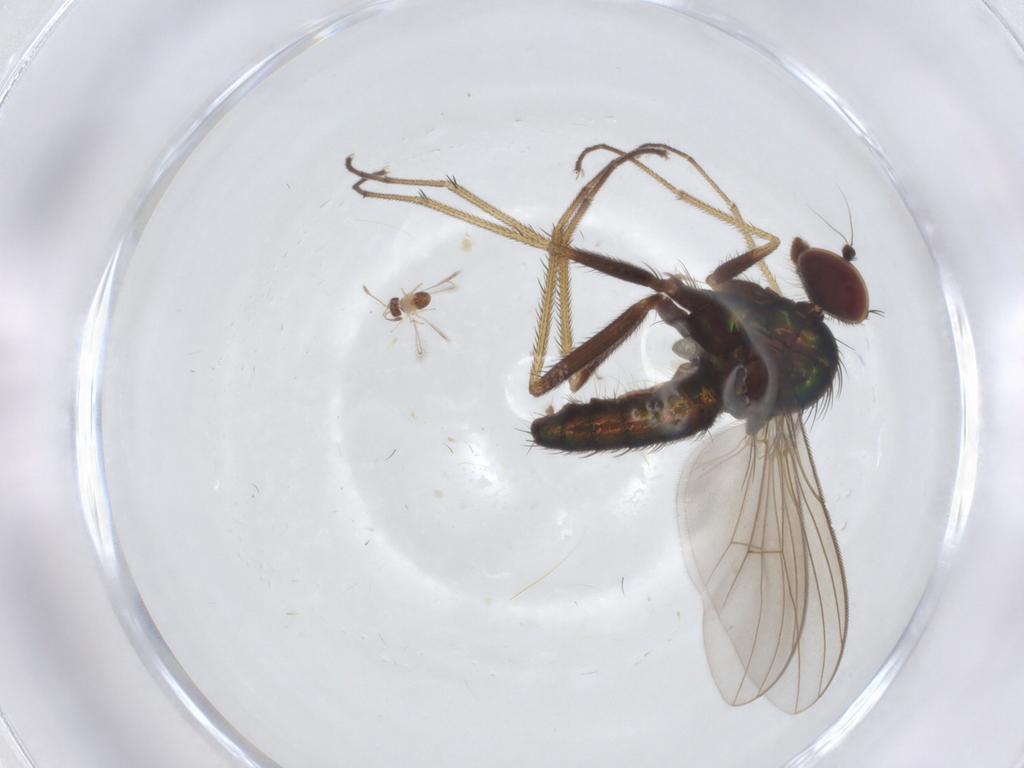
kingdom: Animalia
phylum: Arthropoda
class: Insecta
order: Diptera
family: Dolichopodidae
